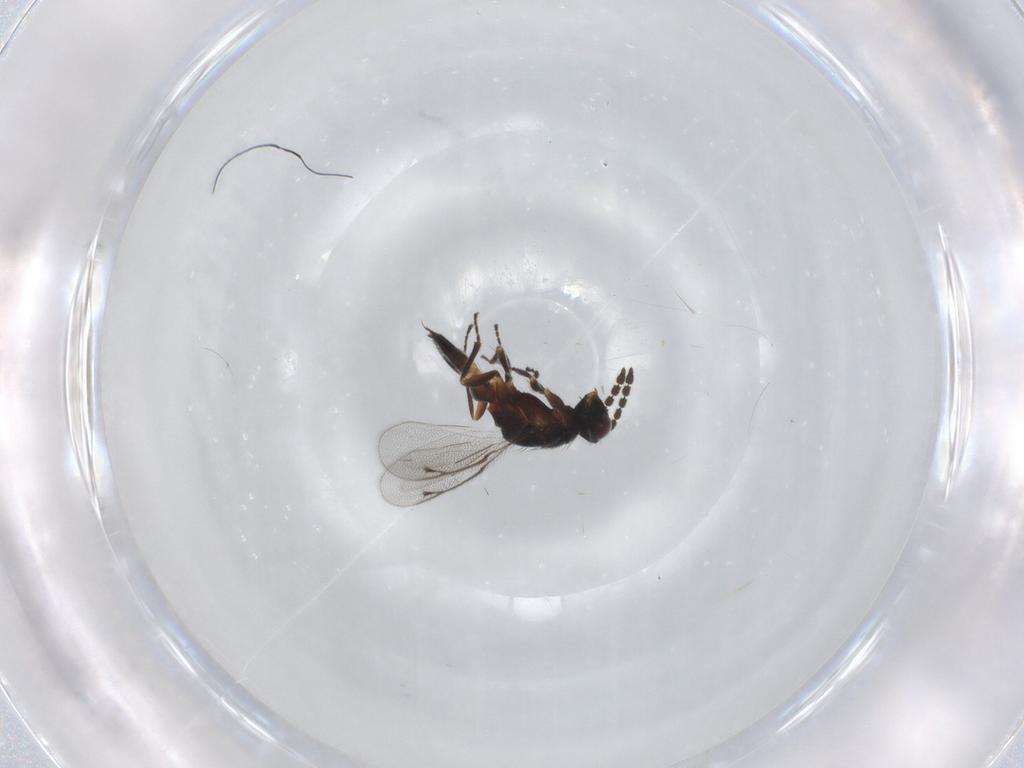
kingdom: Animalia
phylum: Arthropoda
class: Insecta
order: Hymenoptera
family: Eulophidae
